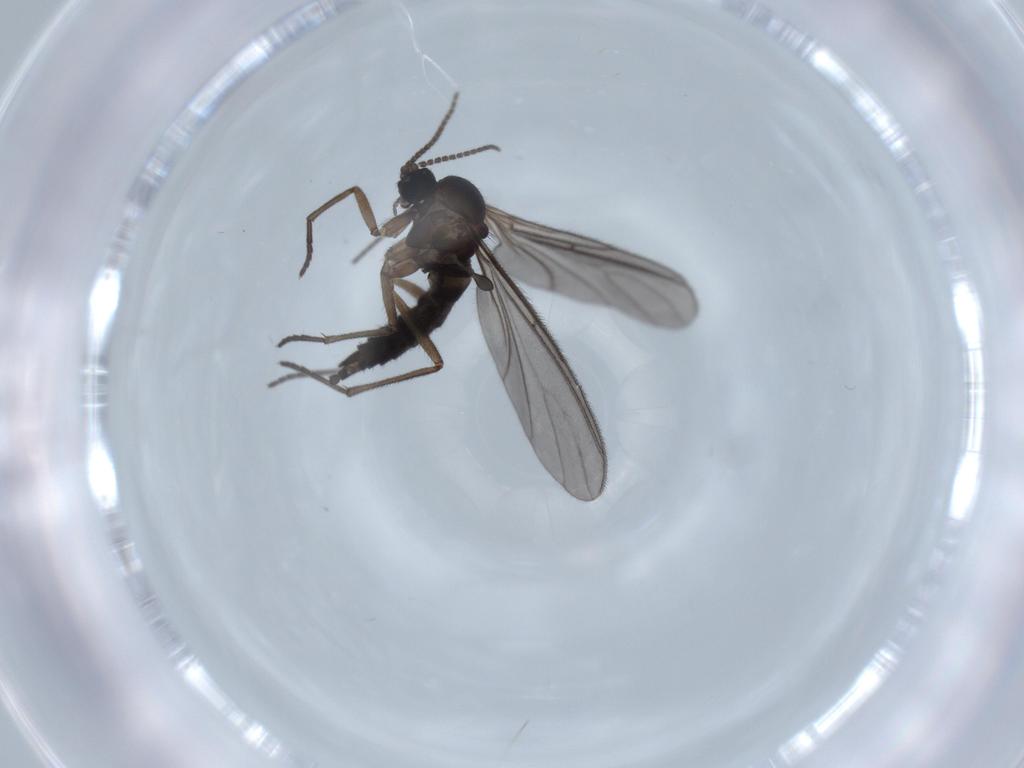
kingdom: Animalia
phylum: Arthropoda
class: Insecta
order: Diptera
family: Sciaridae
